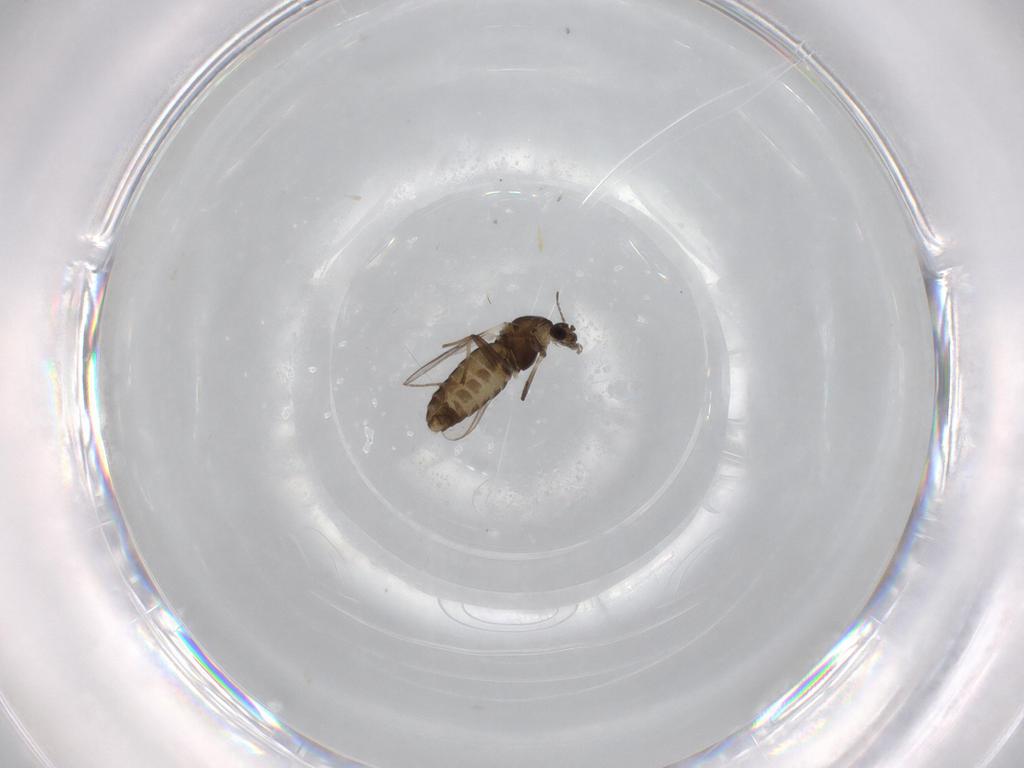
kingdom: Animalia
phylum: Arthropoda
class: Insecta
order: Diptera
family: Chironomidae
